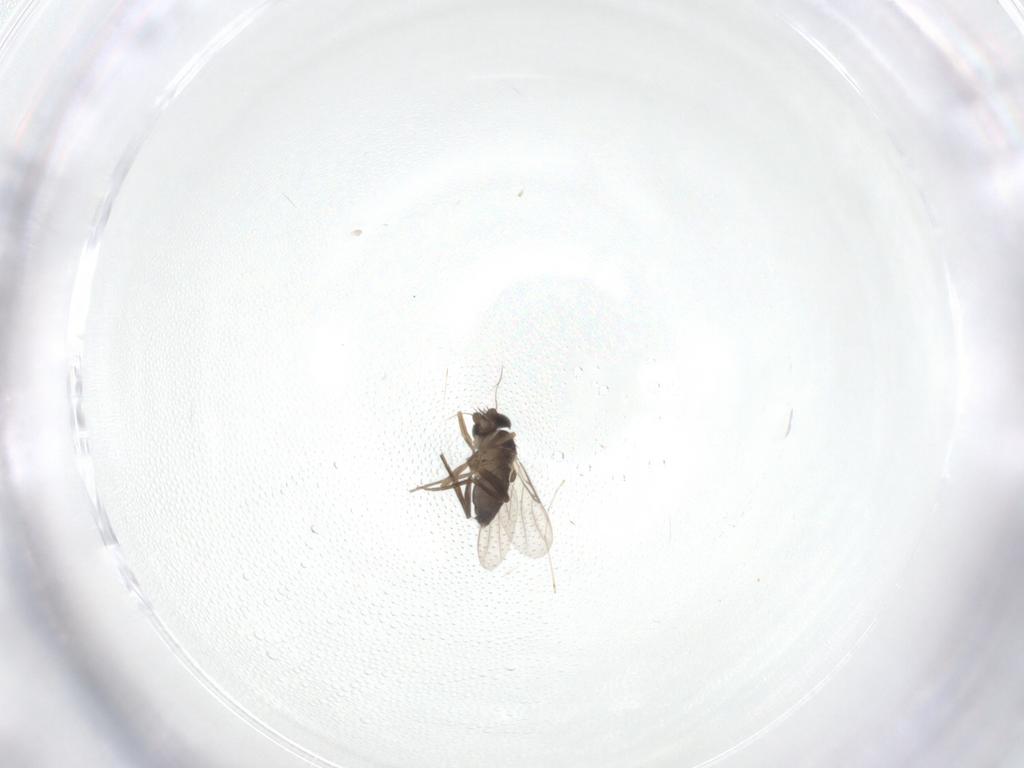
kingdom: Animalia
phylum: Arthropoda
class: Insecta
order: Diptera
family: Phoridae
